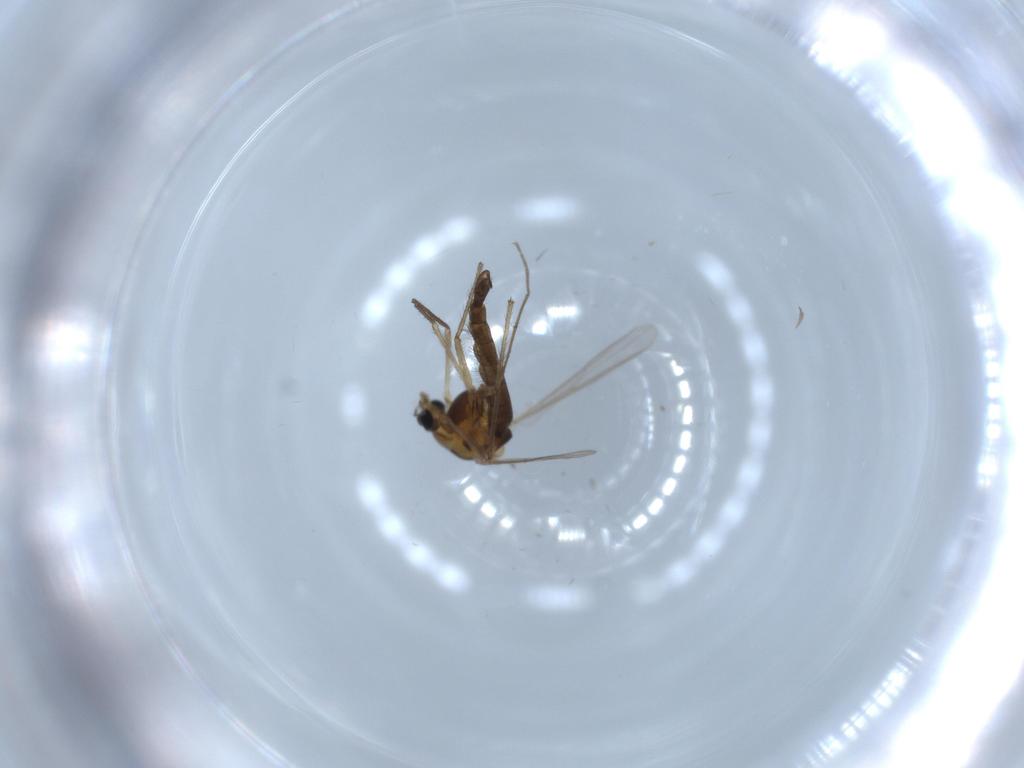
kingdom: Animalia
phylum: Arthropoda
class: Insecta
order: Diptera
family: Chironomidae
